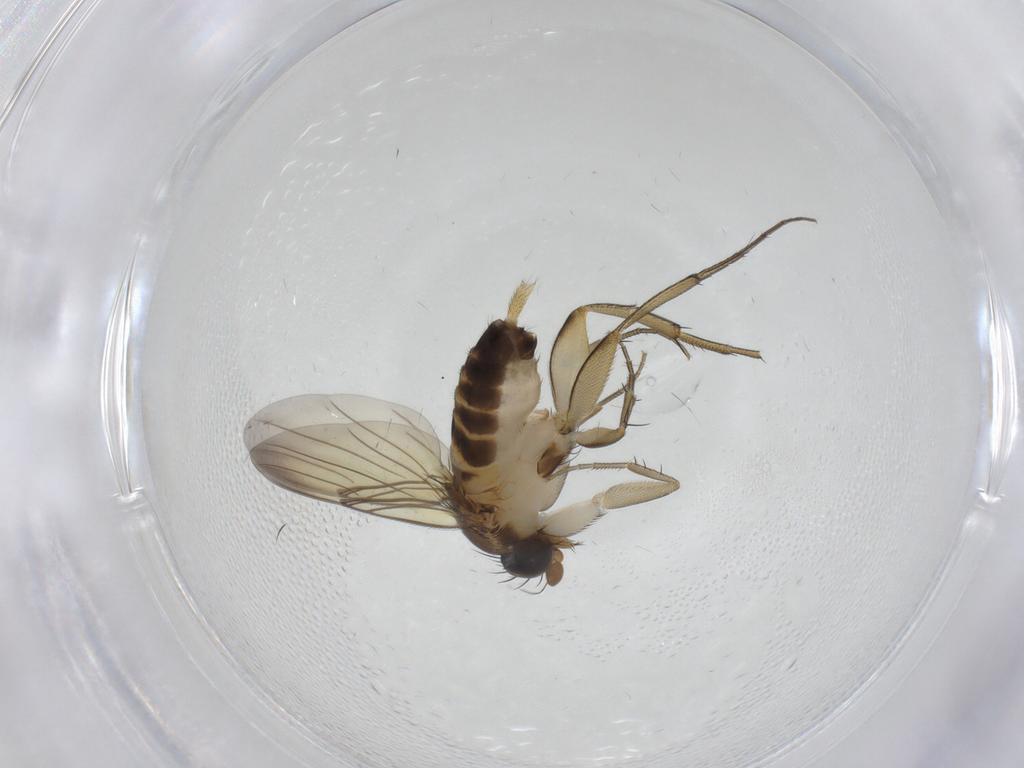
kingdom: Animalia
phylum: Arthropoda
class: Insecta
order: Diptera
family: Phoridae
